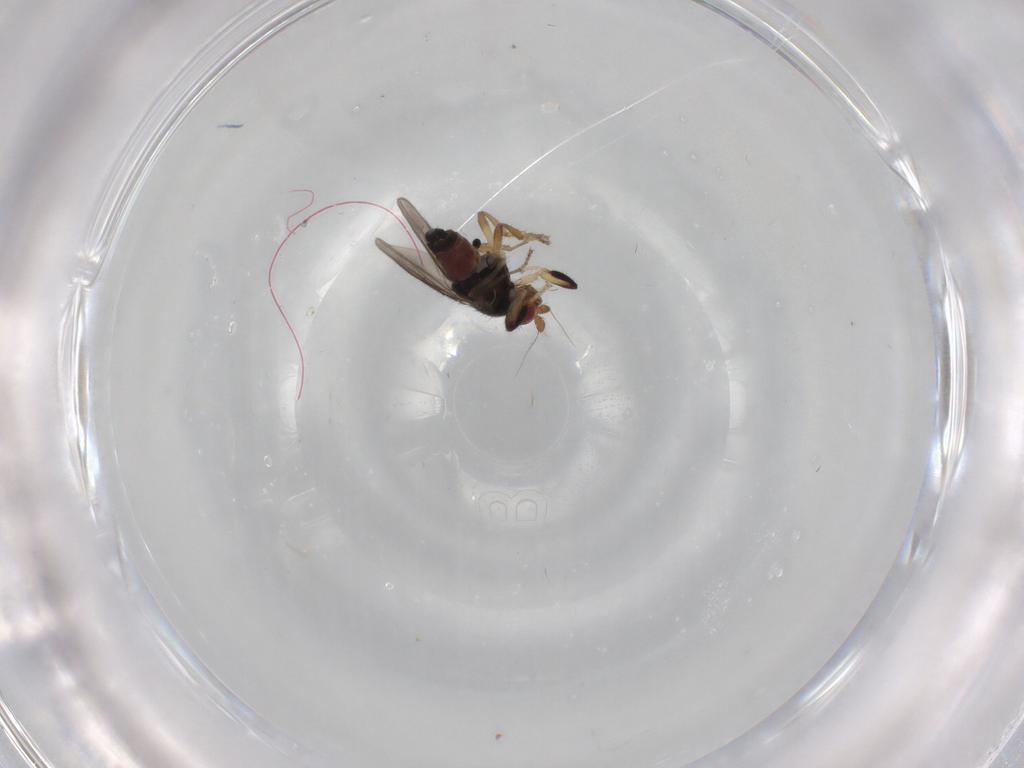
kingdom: Animalia
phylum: Arthropoda
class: Insecta
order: Diptera
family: Sphaeroceridae
